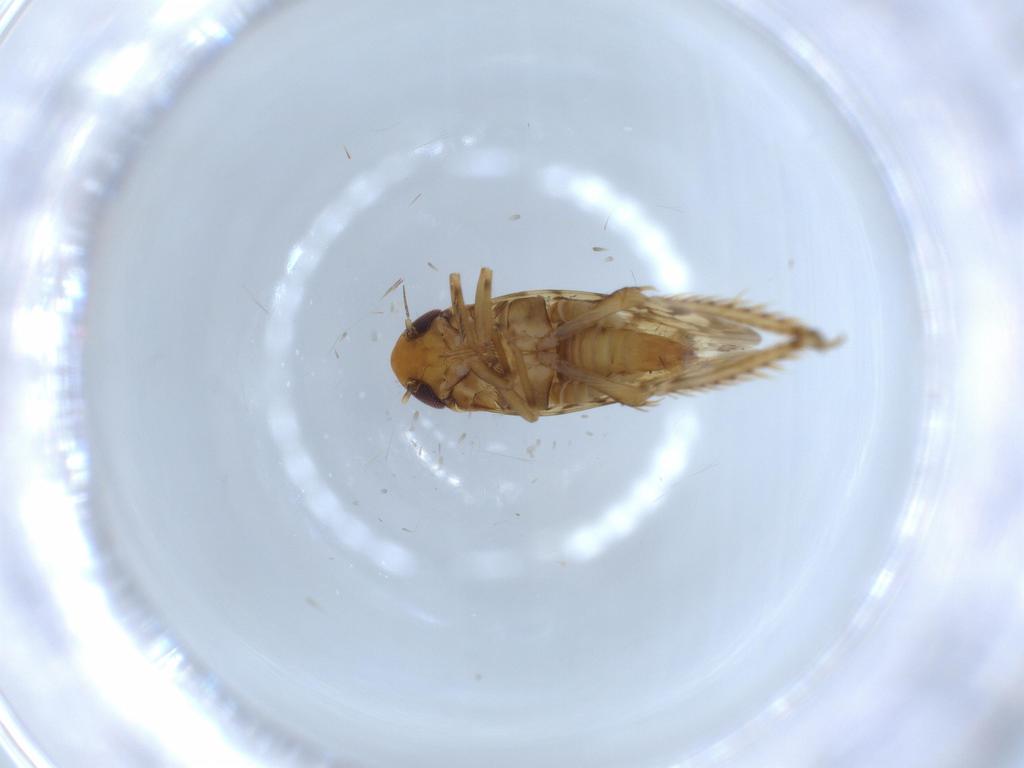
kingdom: Animalia
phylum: Arthropoda
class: Insecta
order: Hemiptera
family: Cicadellidae
